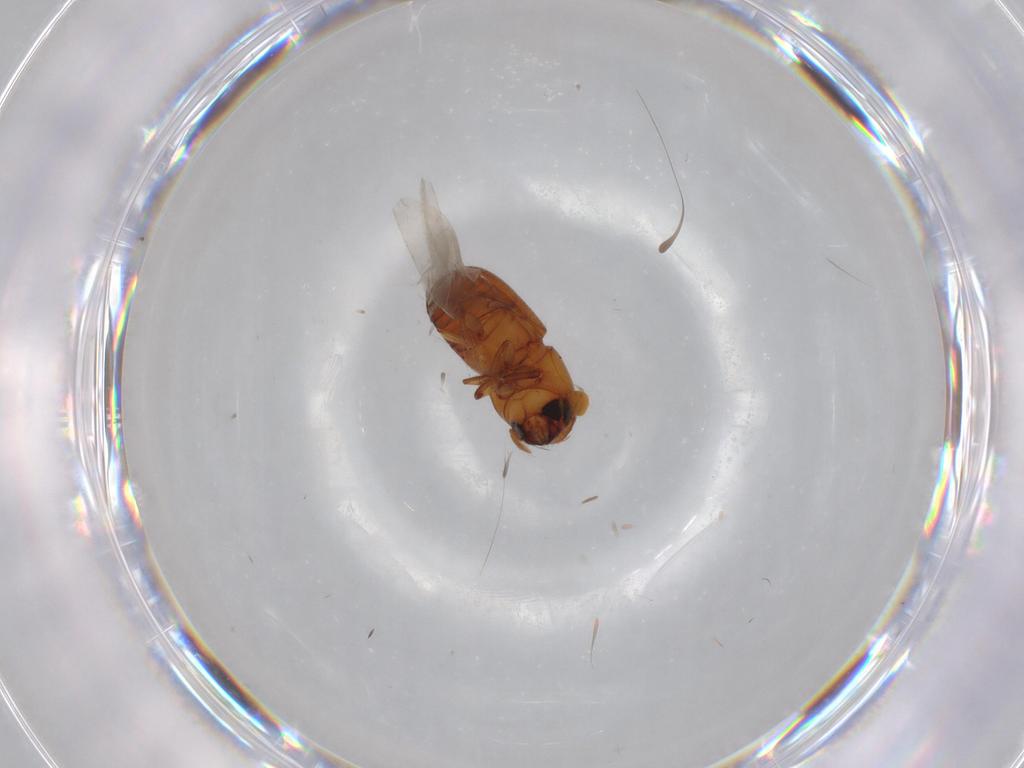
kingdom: Animalia
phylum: Arthropoda
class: Insecta
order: Coleoptera
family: Curculionidae
